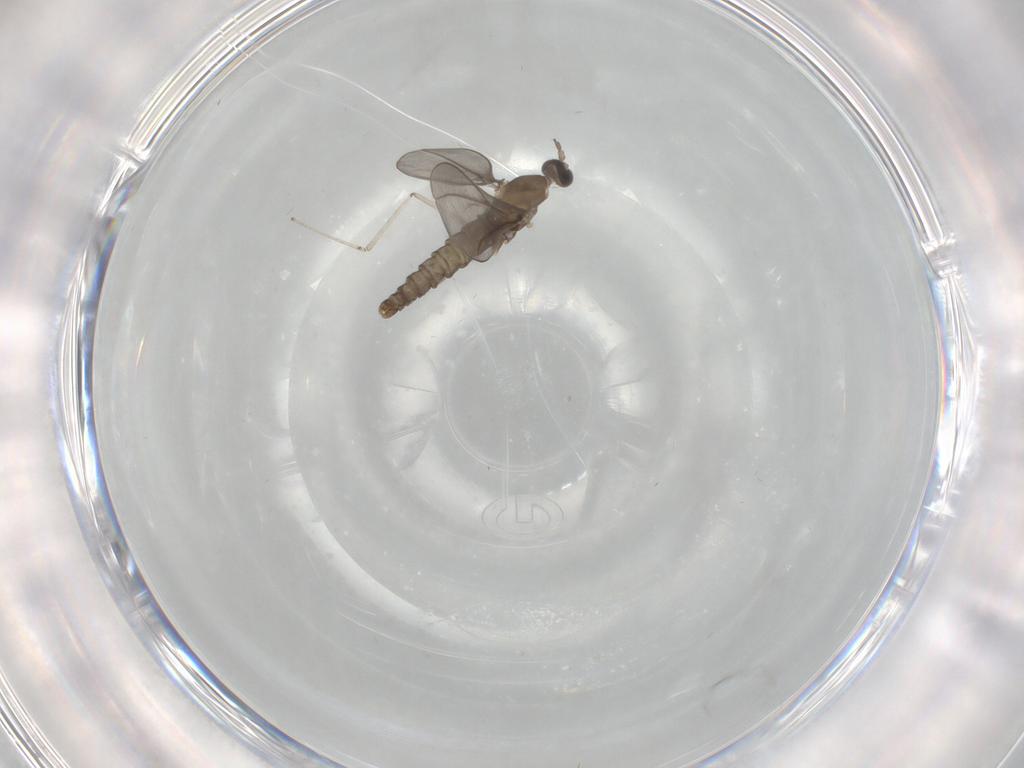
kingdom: Animalia
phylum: Arthropoda
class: Insecta
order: Diptera
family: Cecidomyiidae
